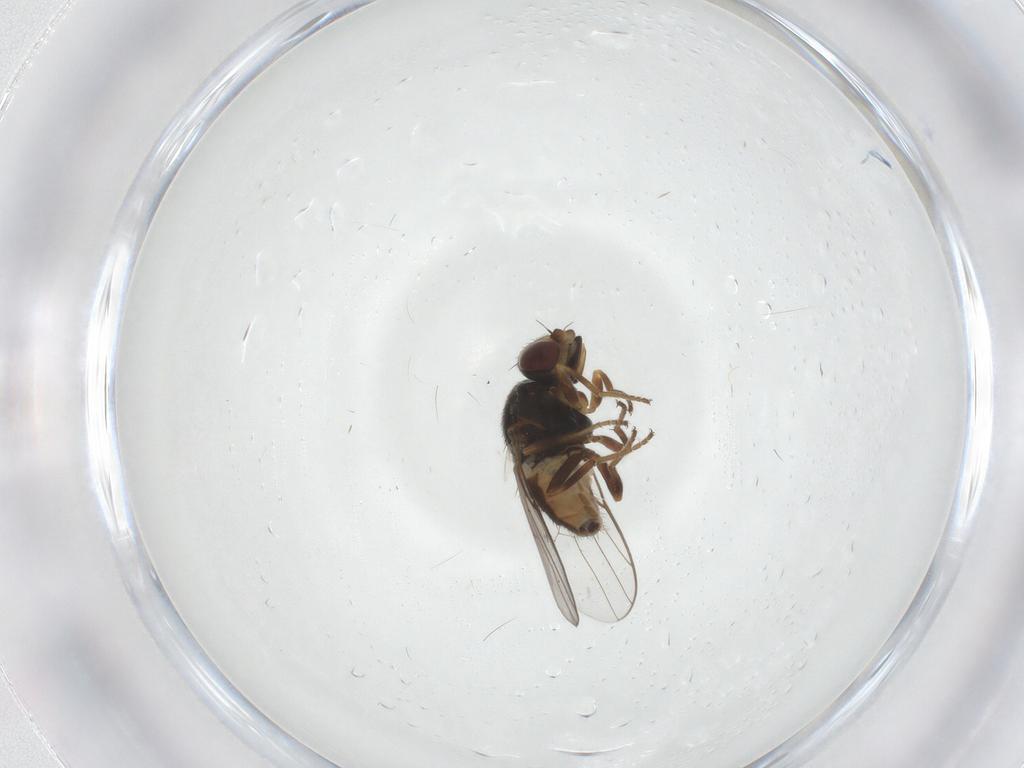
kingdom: Animalia
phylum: Arthropoda
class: Insecta
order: Diptera
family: Chloropidae
